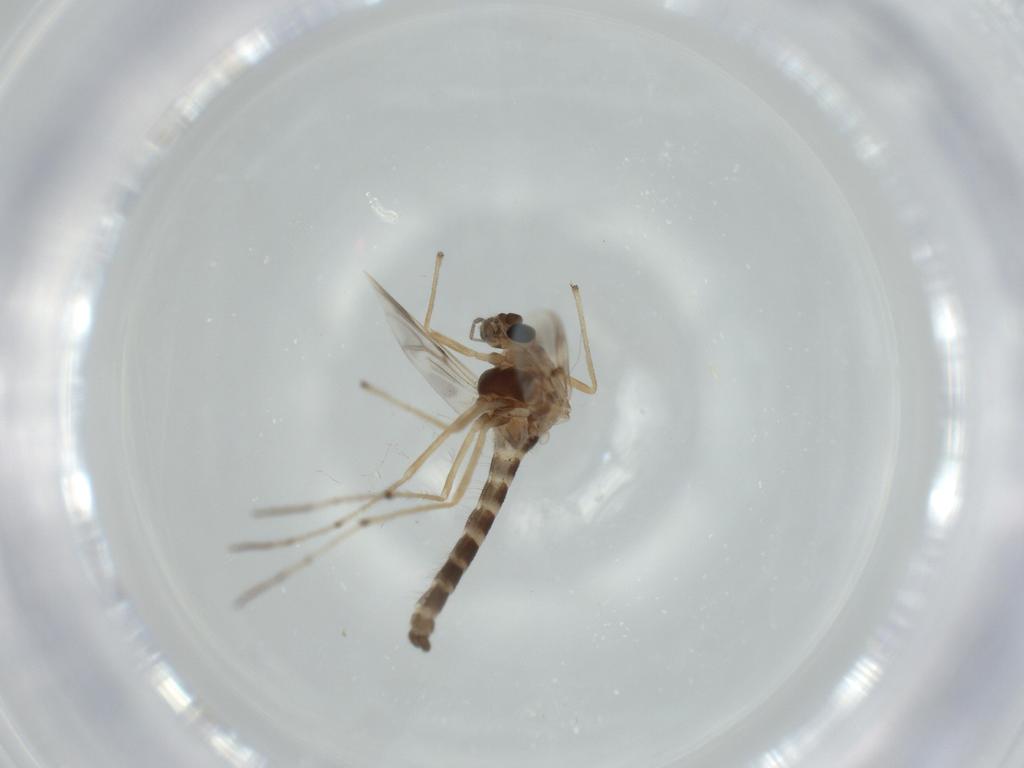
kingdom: Animalia
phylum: Arthropoda
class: Insecta
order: Diptera
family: Chironomidae
